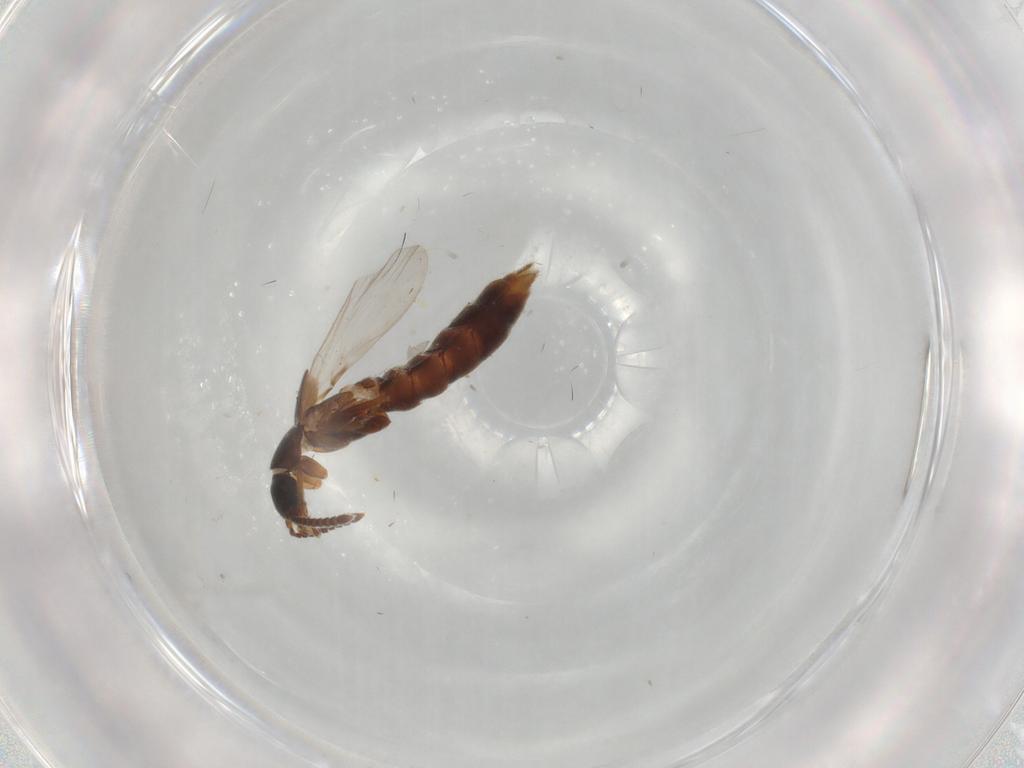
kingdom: Animalia
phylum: Arthropoda
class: Insecta
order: Coleoptera
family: Staphylinidae
